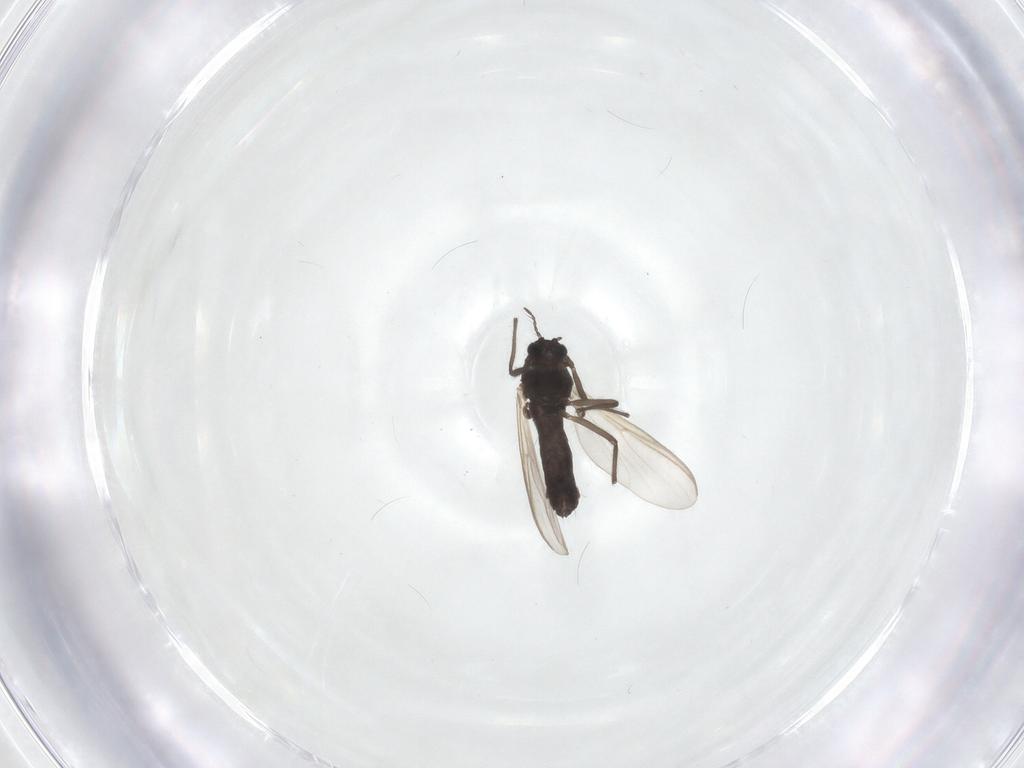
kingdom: Animalia
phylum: Arthropoda
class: Insecta
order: Diptera
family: Chironomidae
